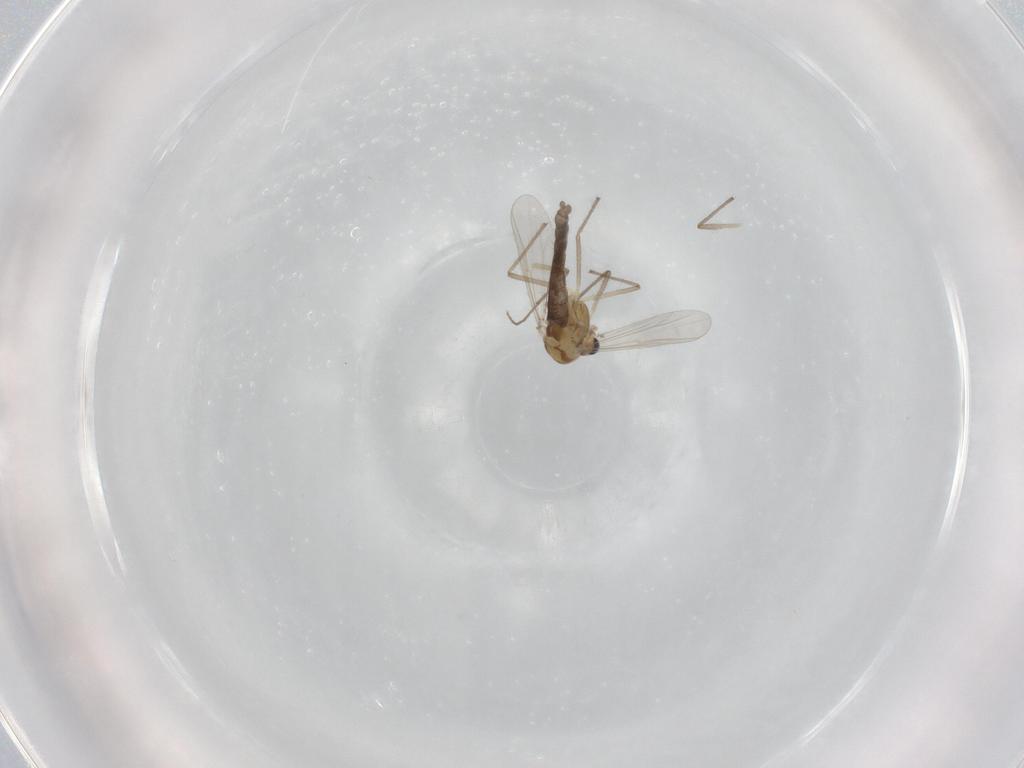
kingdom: Animalia
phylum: Arthropoda
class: Insecta
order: Diptera
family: Chironomidae
